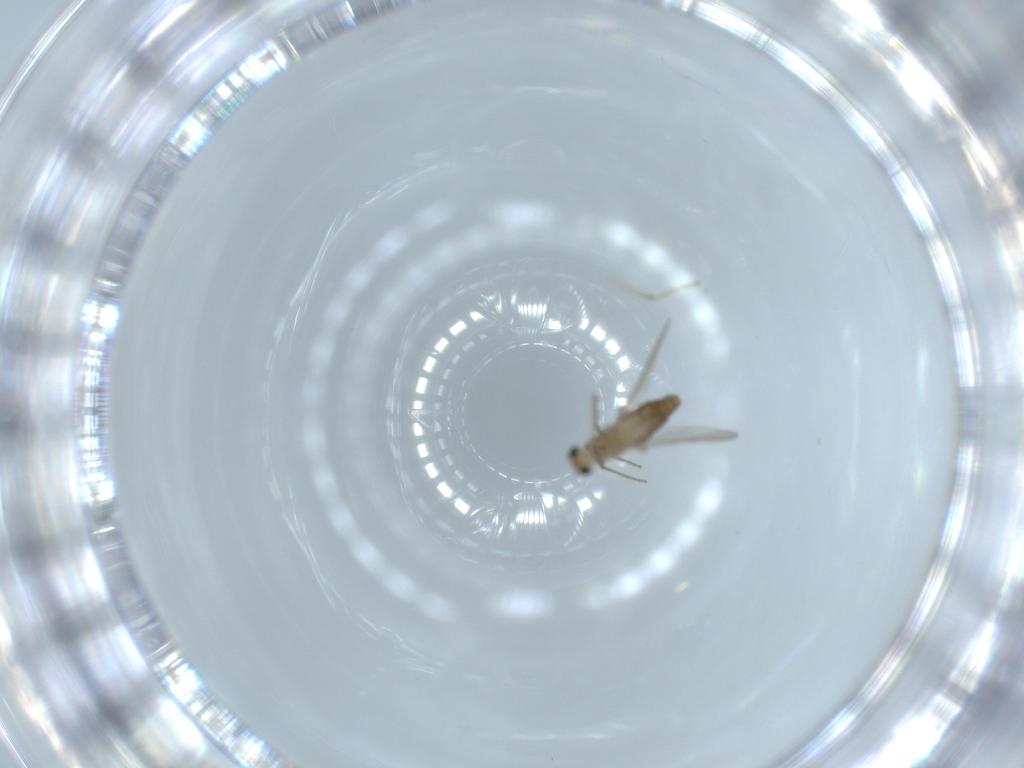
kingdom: Animalia
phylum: Arthropoda
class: Insecta
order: Diptera
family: Chironomidae
